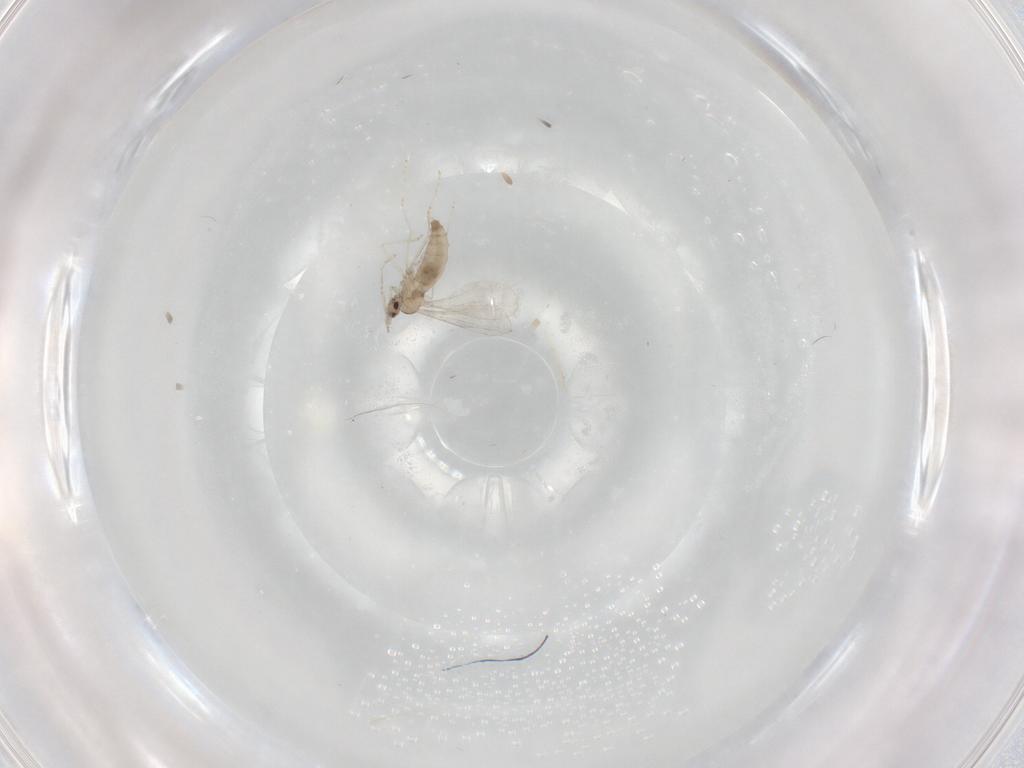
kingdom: Animalia
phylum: Arthropoda
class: Insecta
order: Diptera
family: Cecidomyiidae
